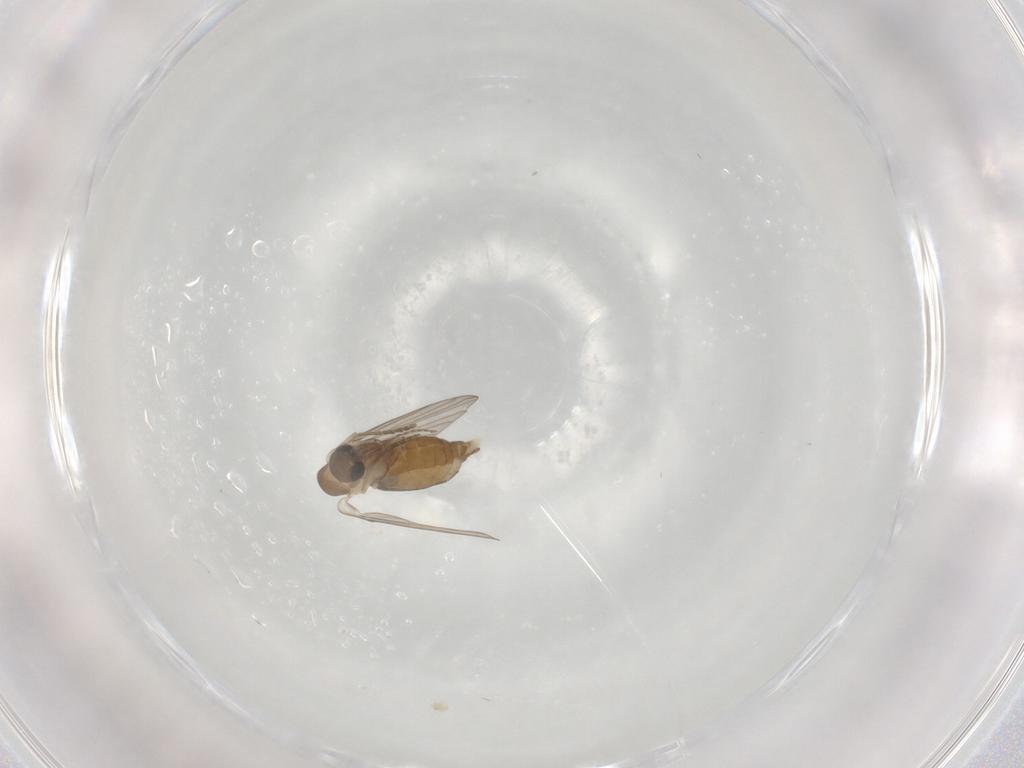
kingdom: Animalia
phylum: Arthropoda
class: Insecta
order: Diptera
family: Psychodidae
